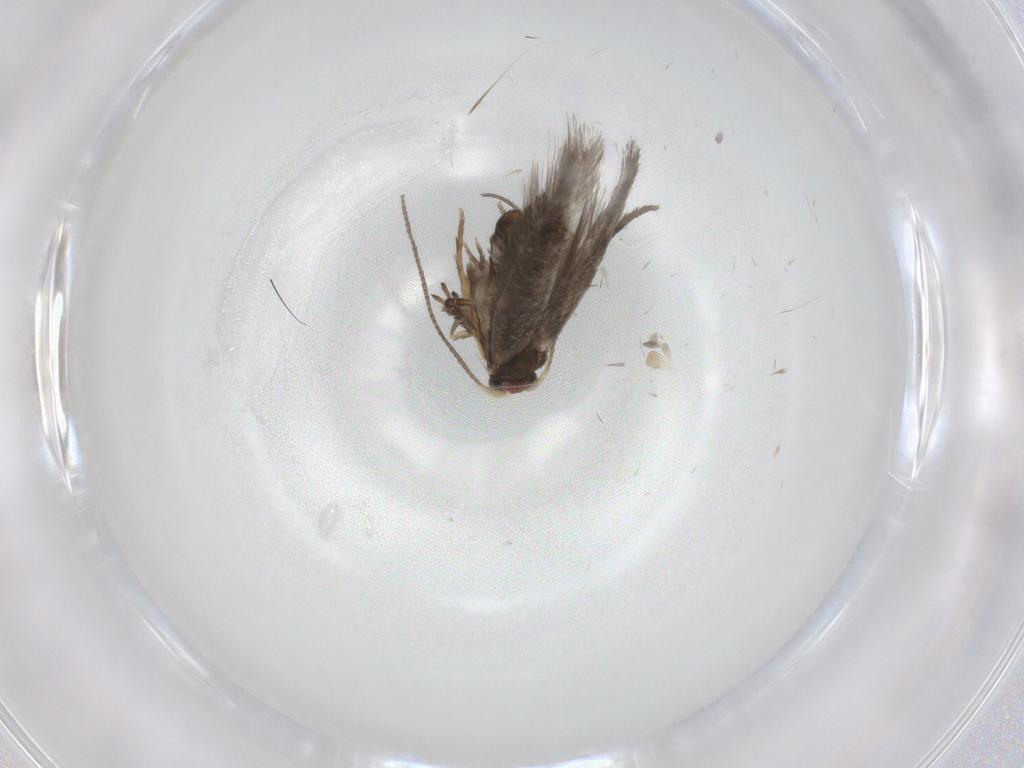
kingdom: Animalia
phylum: Arthropoda
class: Insecta
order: Lepidoptera
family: Nepticulidae
